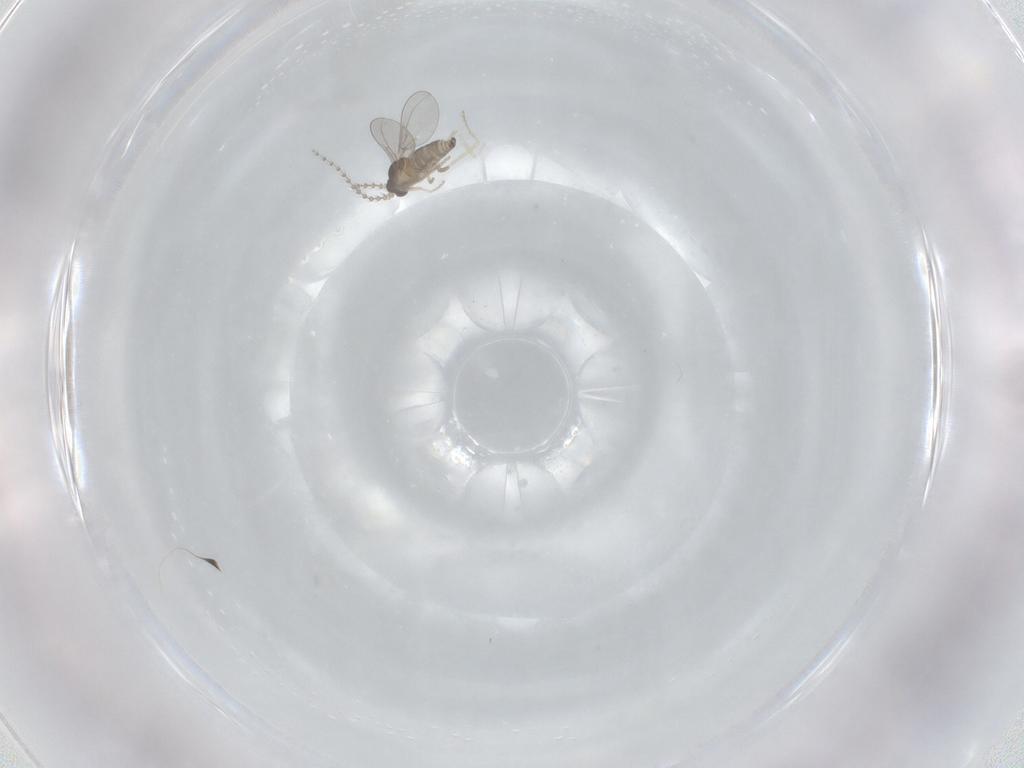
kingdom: Animalia
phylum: Arthropoda
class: Insecta
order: Diptera
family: Cecidomyiidae
